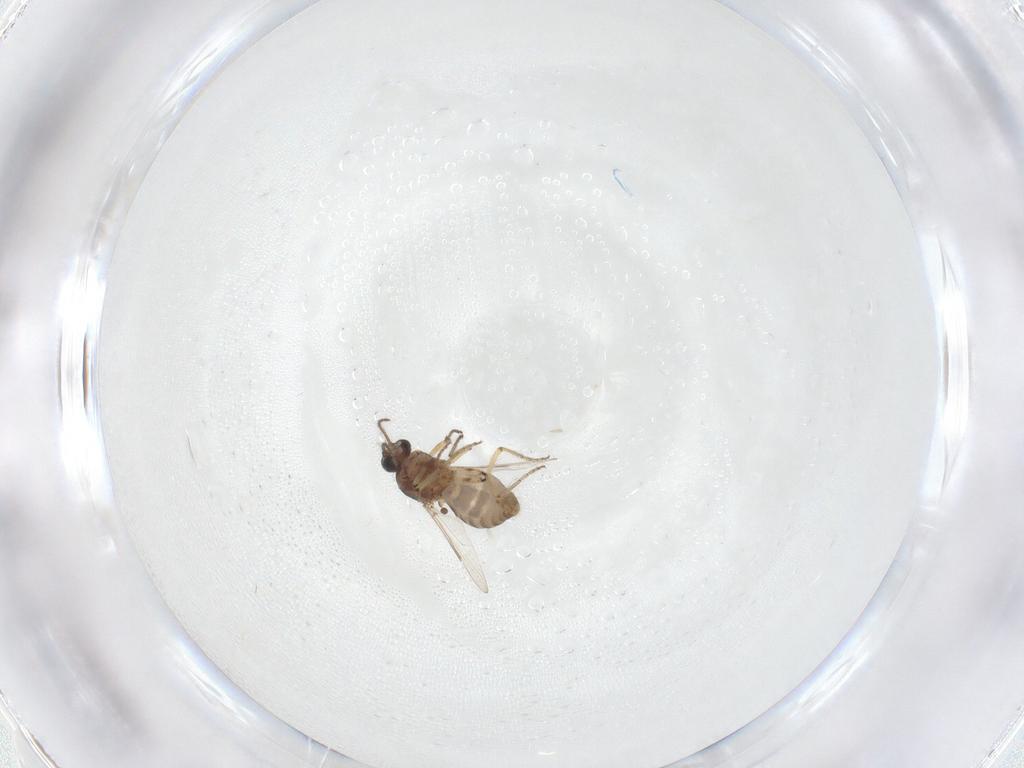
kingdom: Animalia
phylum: Arthropoda
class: Insecta
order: Diptera
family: Ceratopogonidae
